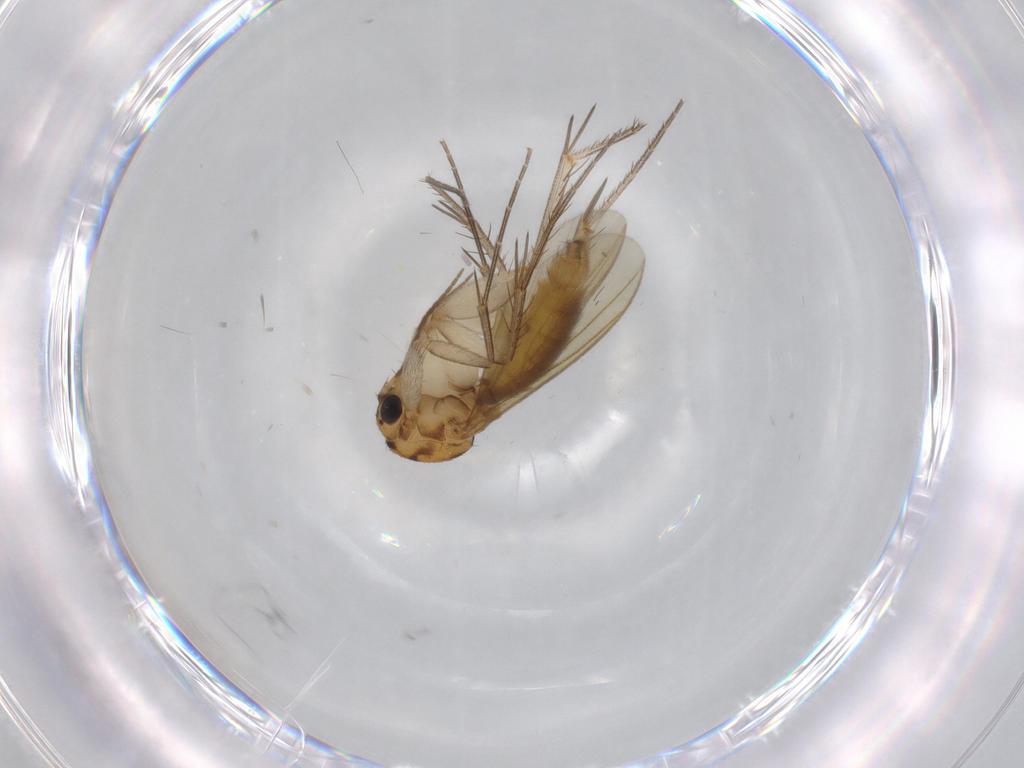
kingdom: Animalia
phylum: Arthropoda
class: Insecta
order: Diptera
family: Mycetophilidae
